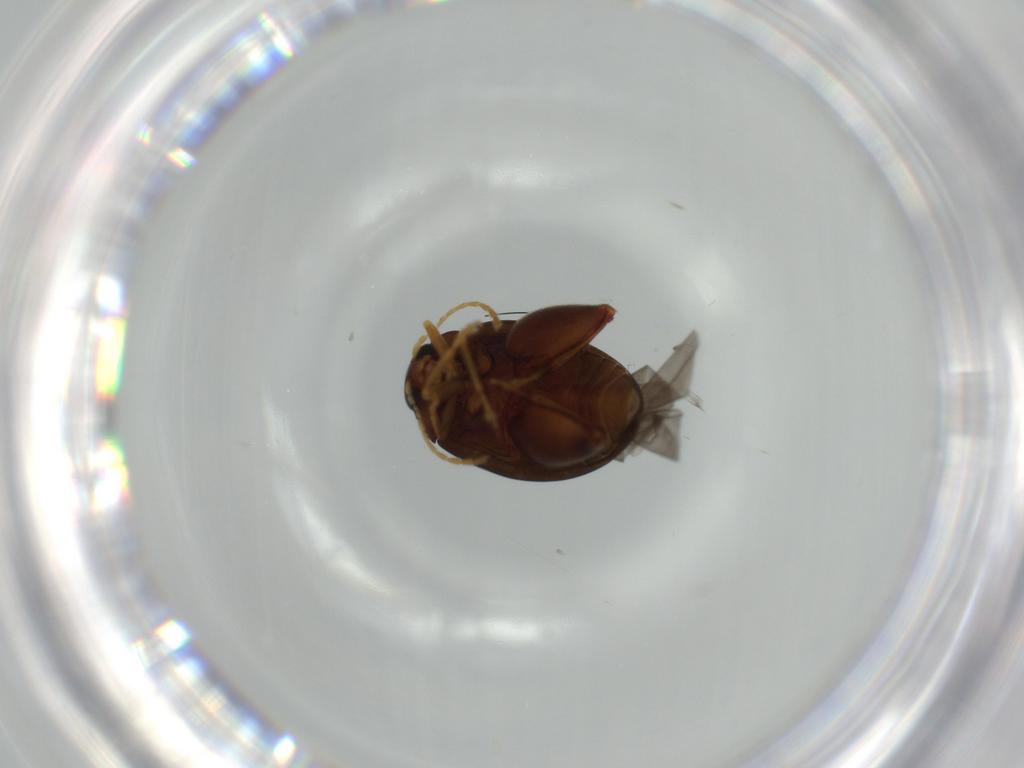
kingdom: Animalia
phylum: Arthropoda
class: Insecta
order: Coleoptera
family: Chrysomelidae
